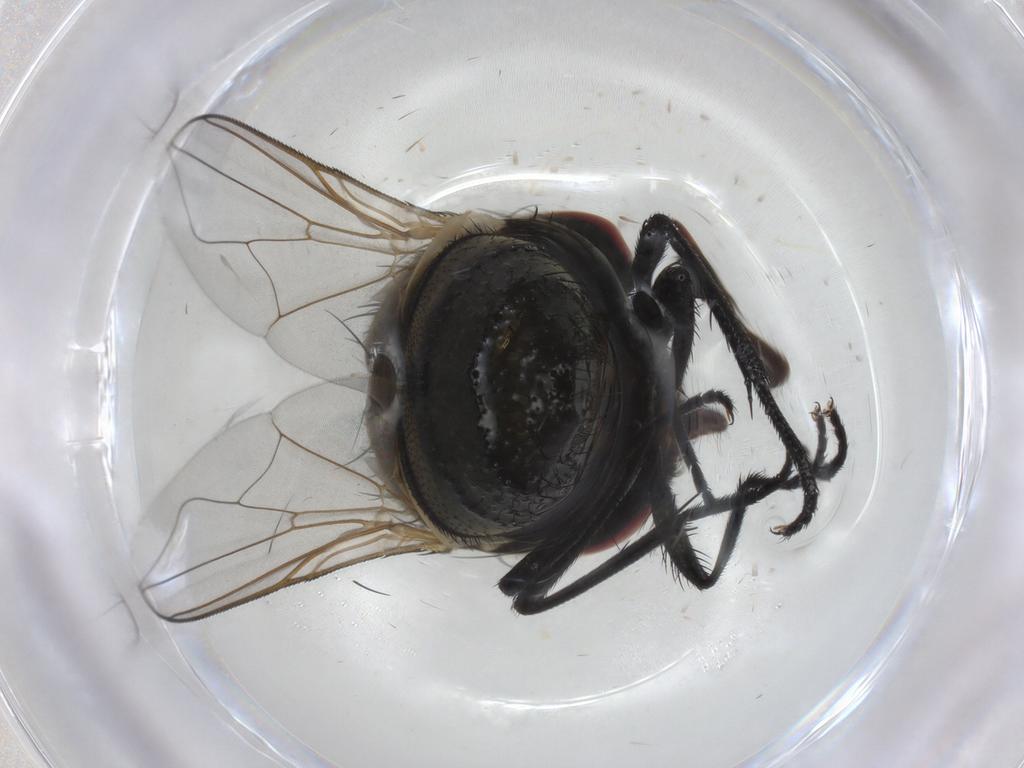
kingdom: Animalia
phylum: Arthropoda
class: Insecta
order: Diptera
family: Muscidae
